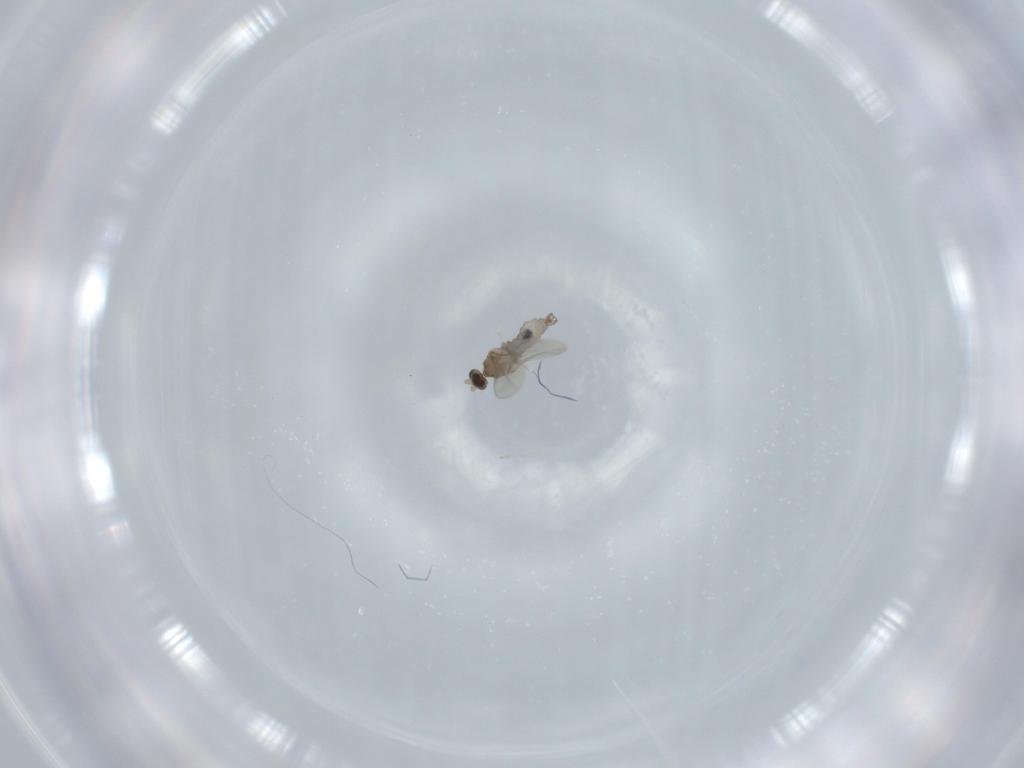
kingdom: Animalia
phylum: Arthropoda
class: Insecta
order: Diptera
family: Cecidomyiidae
